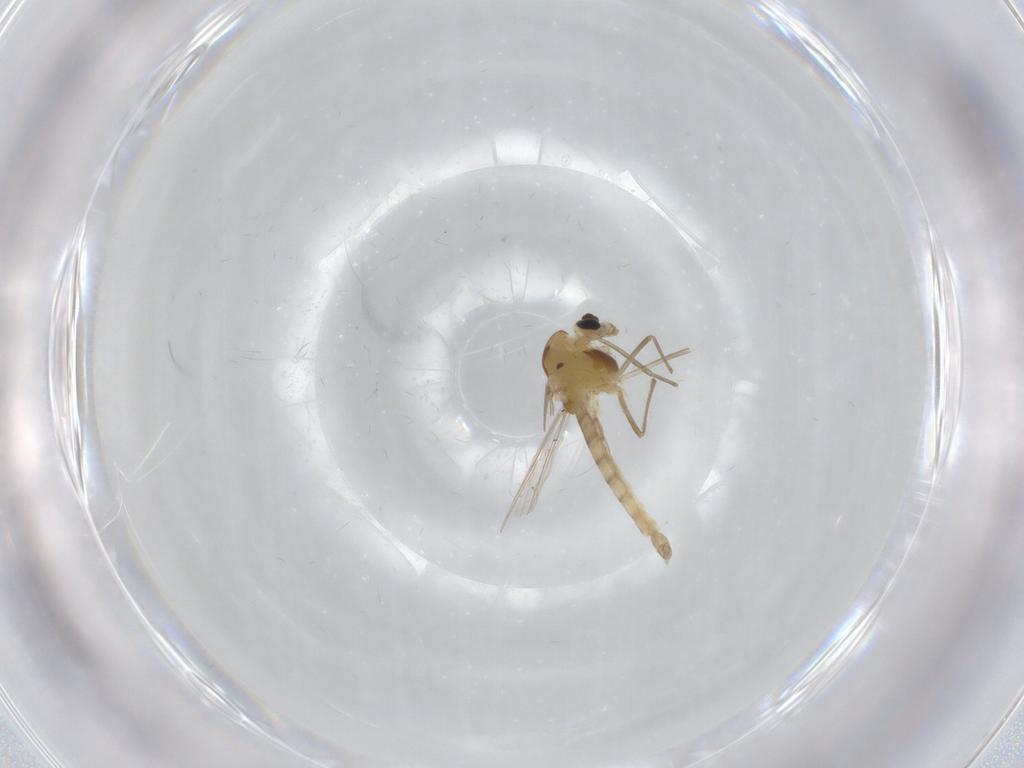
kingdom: Animalia
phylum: Arthropoda
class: Insecta
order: Diptera
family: Chironomidae
